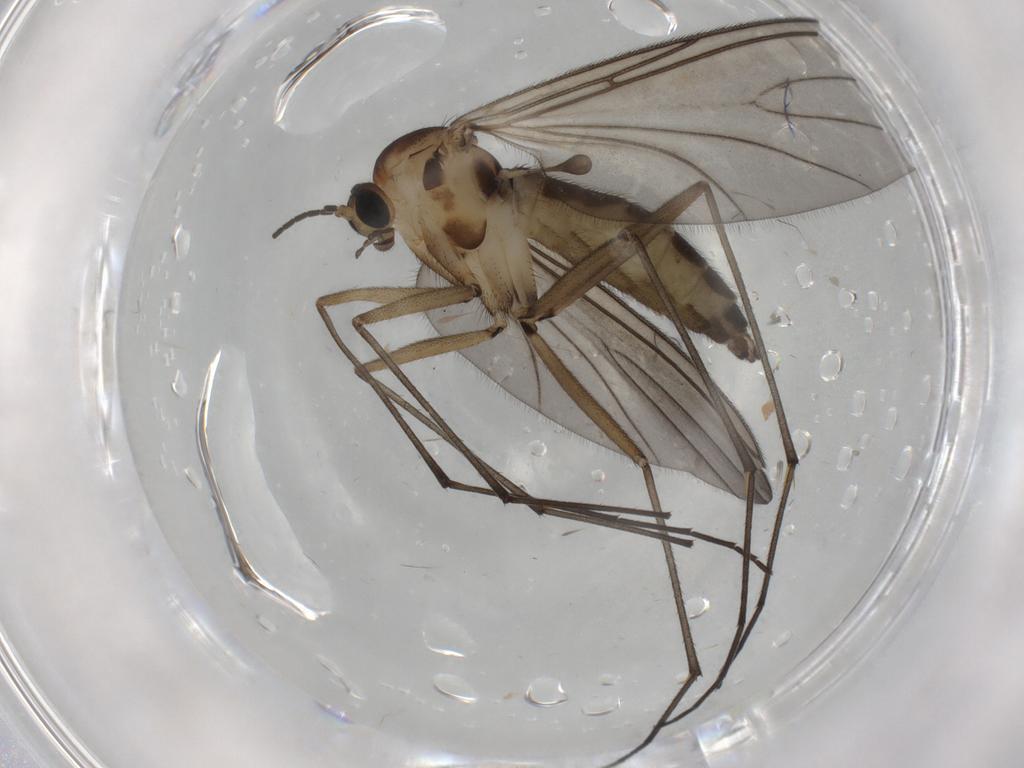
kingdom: Animalia
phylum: Arthropoda
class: Insecta
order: Diptera
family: Sciaridae
